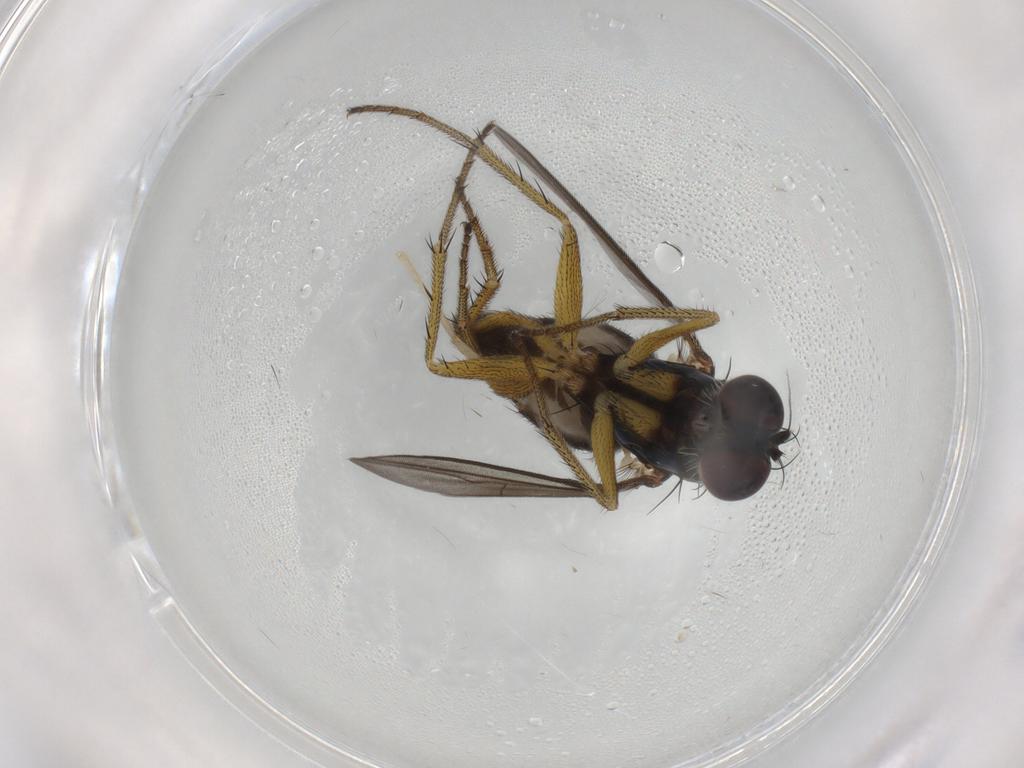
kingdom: Animalia
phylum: Arthropoda
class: Insecta
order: Diptera
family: Dolichopodidae
